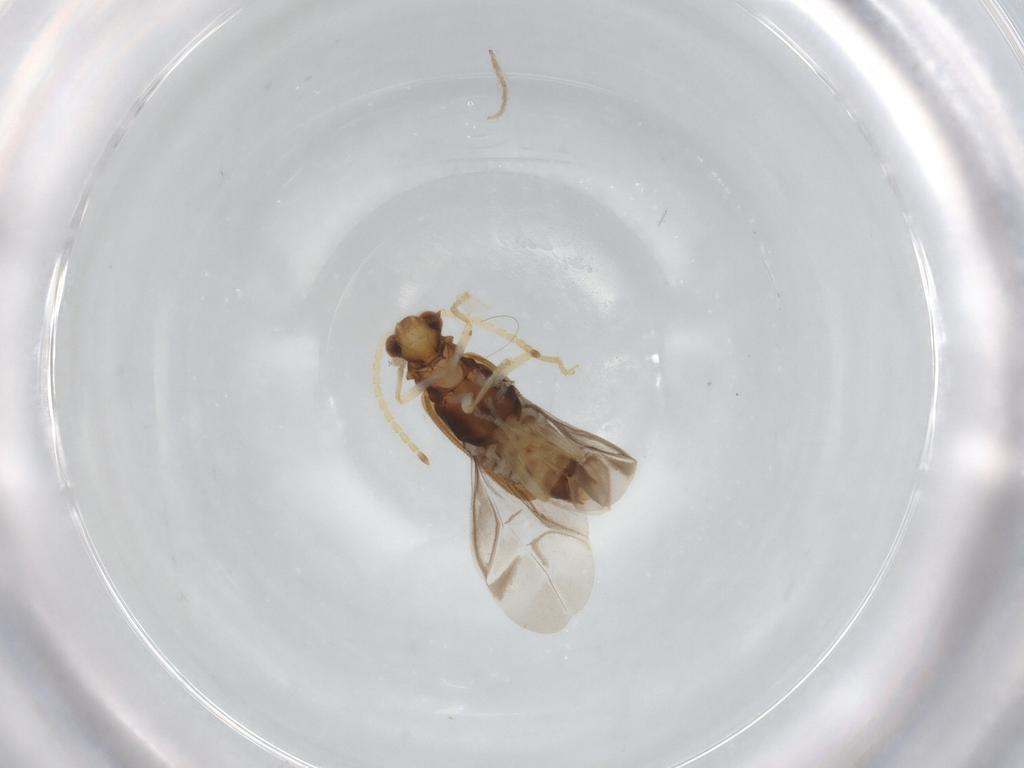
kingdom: Animalia
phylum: Arthropoda
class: Insecta
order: Coleoptera
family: Cantharidae
